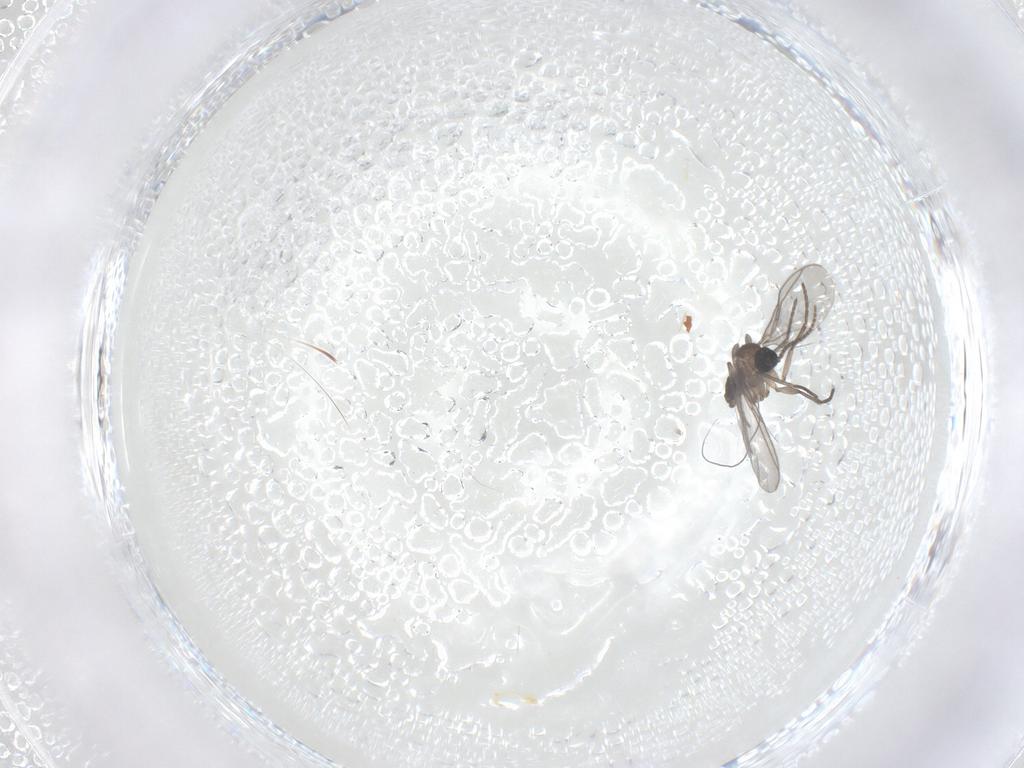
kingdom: Animalia
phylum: Arthropoda
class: Insecta
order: Diptera
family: Sciaridae
